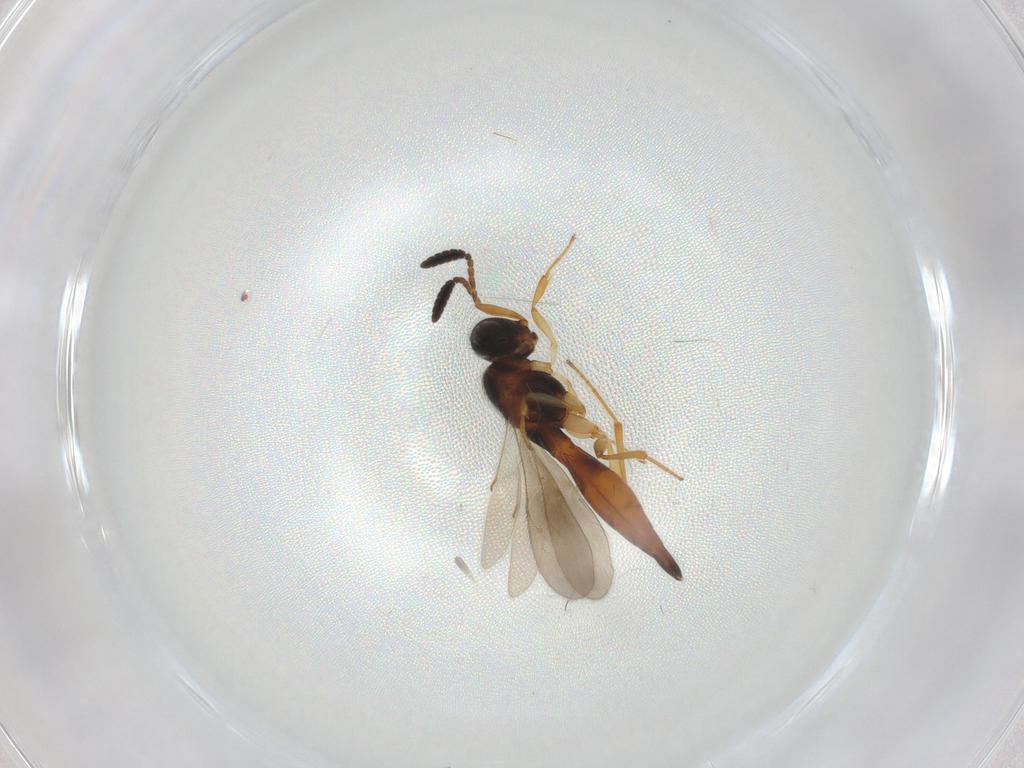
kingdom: Animalia
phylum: Arthropoda
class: Insecta
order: Hymenoptera
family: Scelionidae
